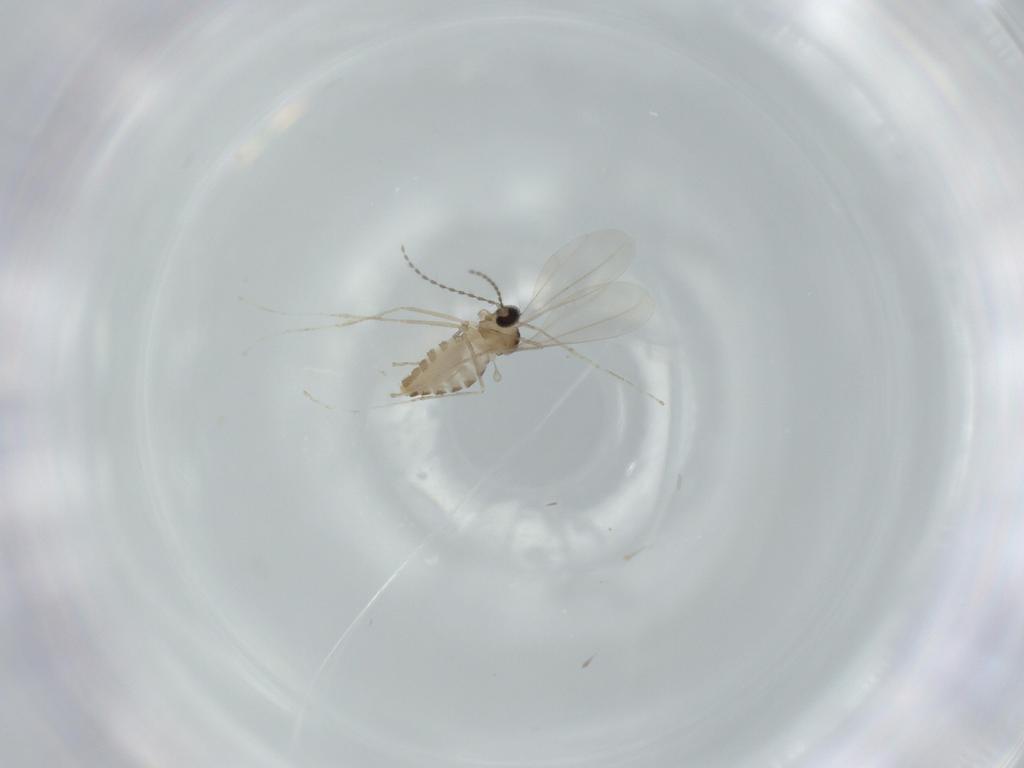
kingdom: Animalia
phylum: Arthropoda
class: Insecta
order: Diptera
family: Cecidomyiidae
